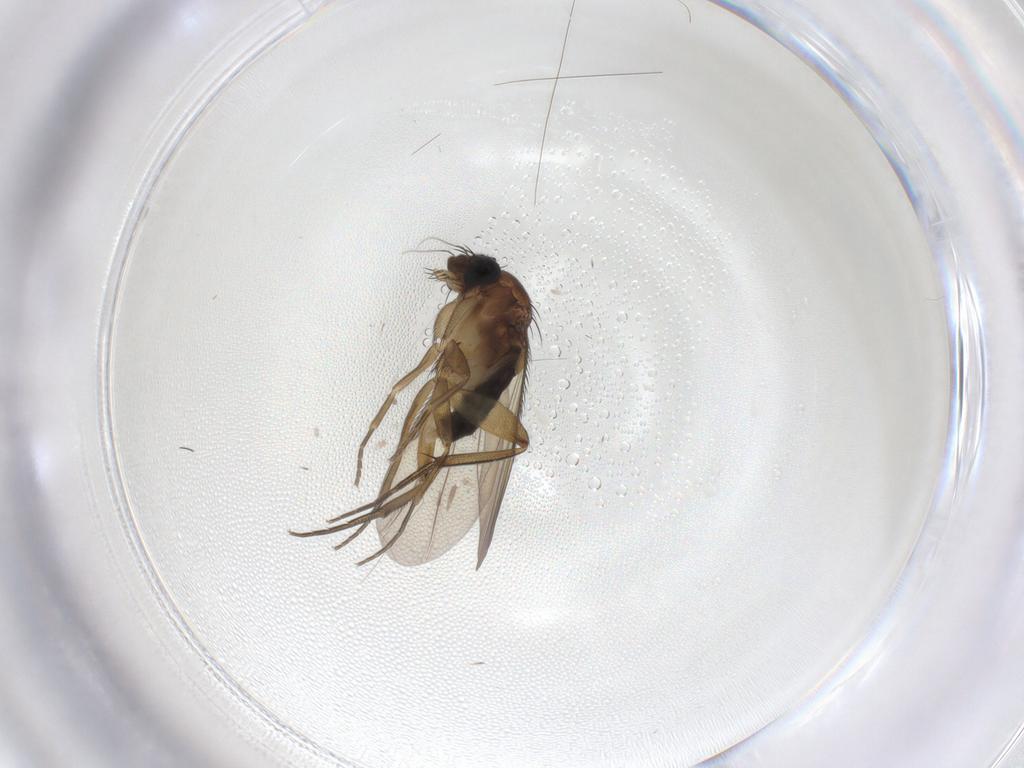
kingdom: Animalia
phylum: Arthropoda
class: Insecta
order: Diptera
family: Phoridae
